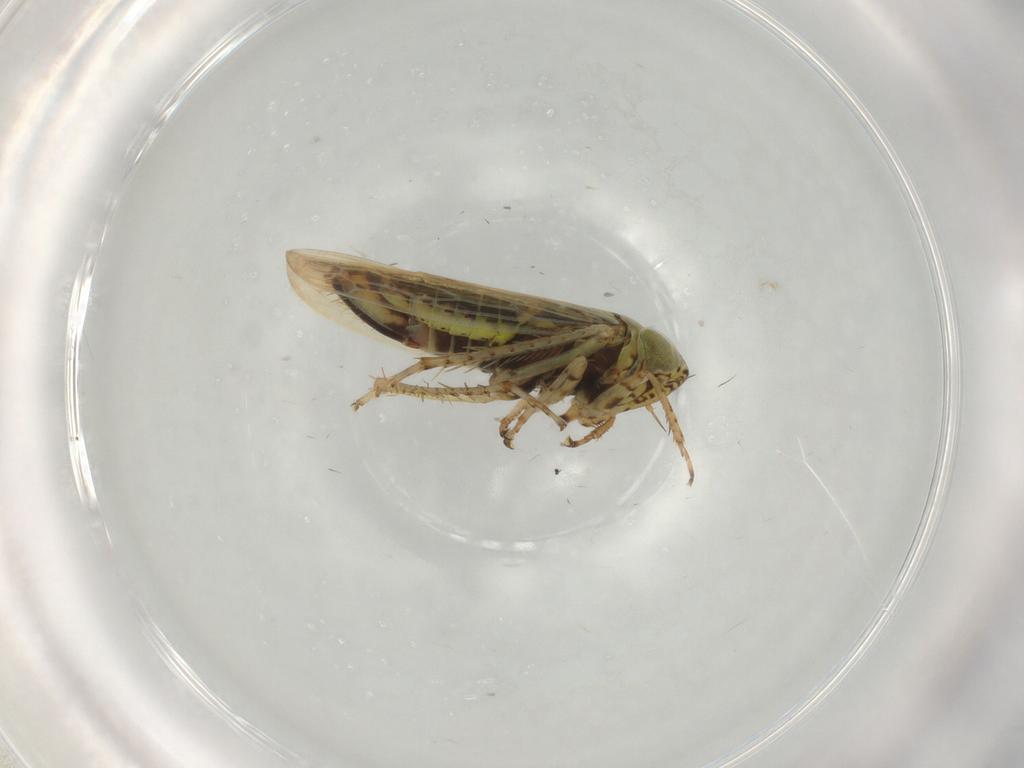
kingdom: Animalia
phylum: Arthropoda
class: Insecta
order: Hemiptera
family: Cicadellidae
